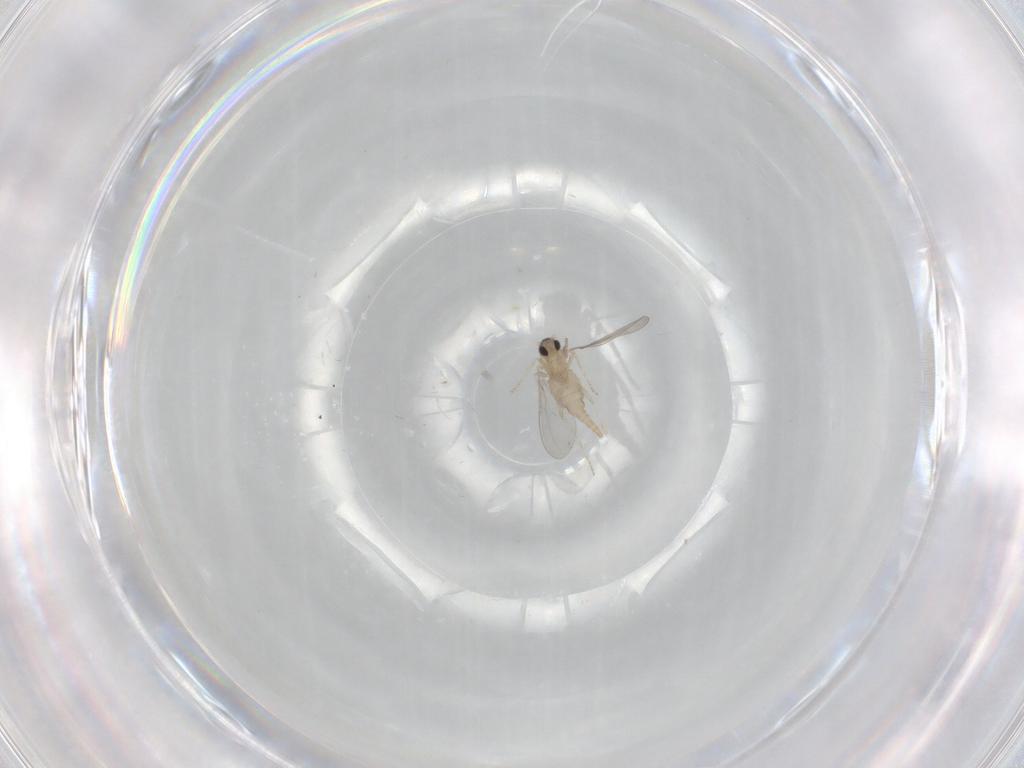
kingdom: Animalia
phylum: Arthropoda
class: Insecta
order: Diptera
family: Cecidomyiidae
